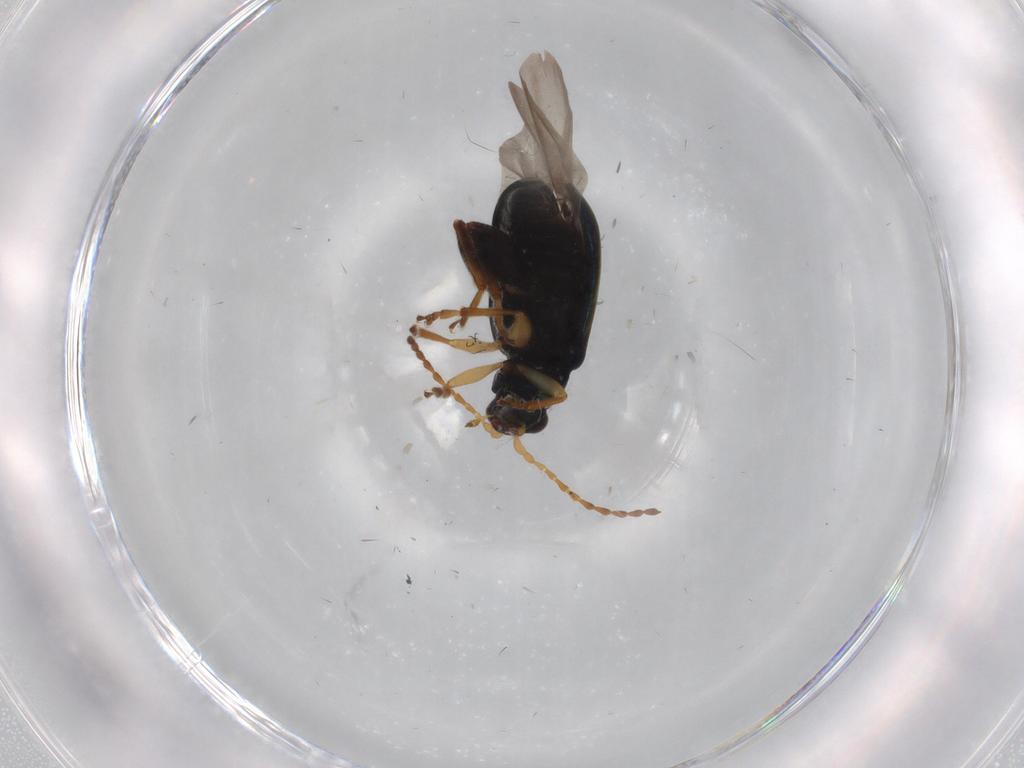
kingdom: Animalia
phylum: Arthropoda
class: Insecta
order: Coleoptera
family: Chrysomelidae
